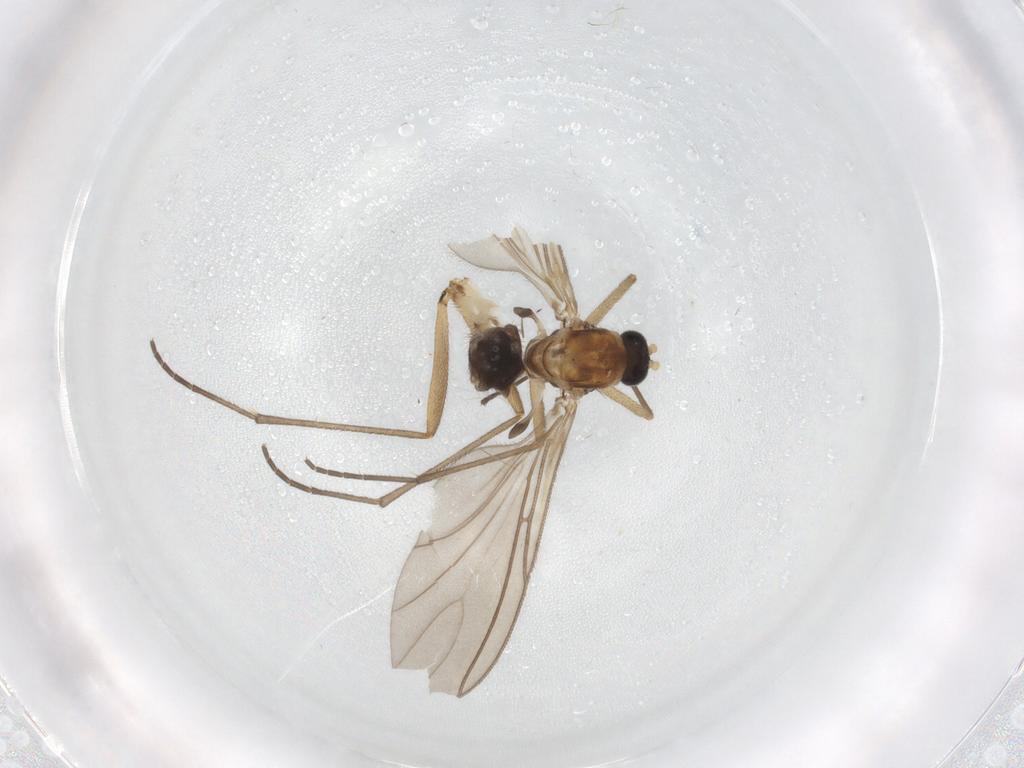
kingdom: Animalia
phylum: Arthropoda
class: Insecta
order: Diptera
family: Sciaridae
